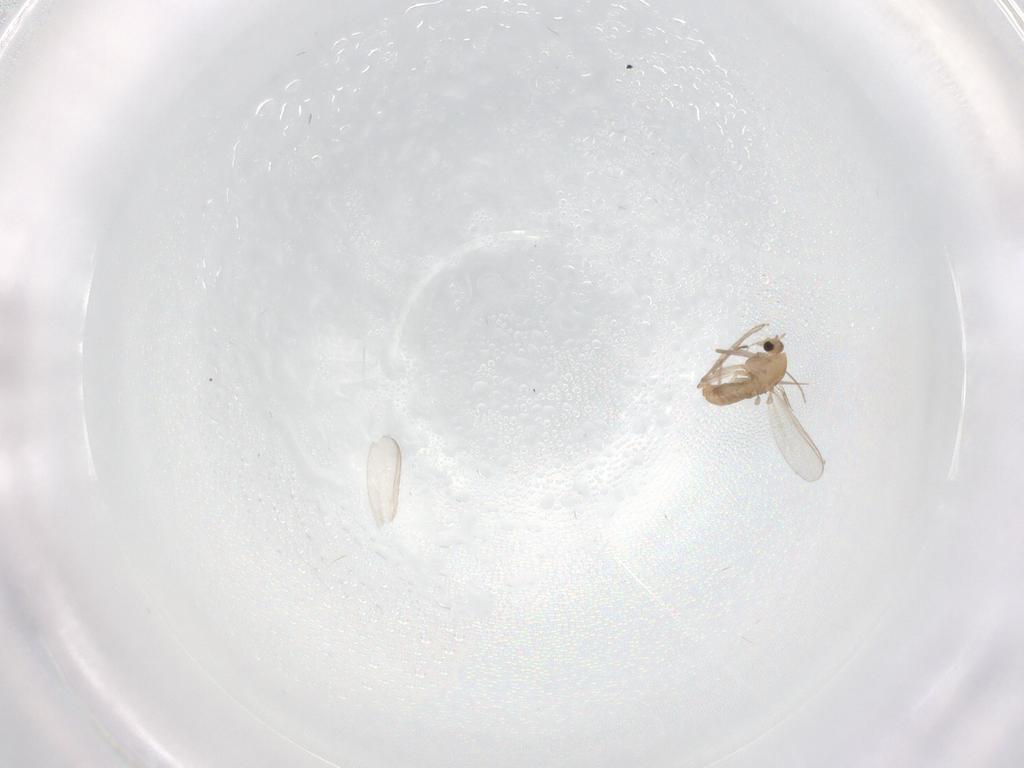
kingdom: Animalia
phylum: Arthropoda
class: Insecta
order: Diptera
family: Chironomidae
